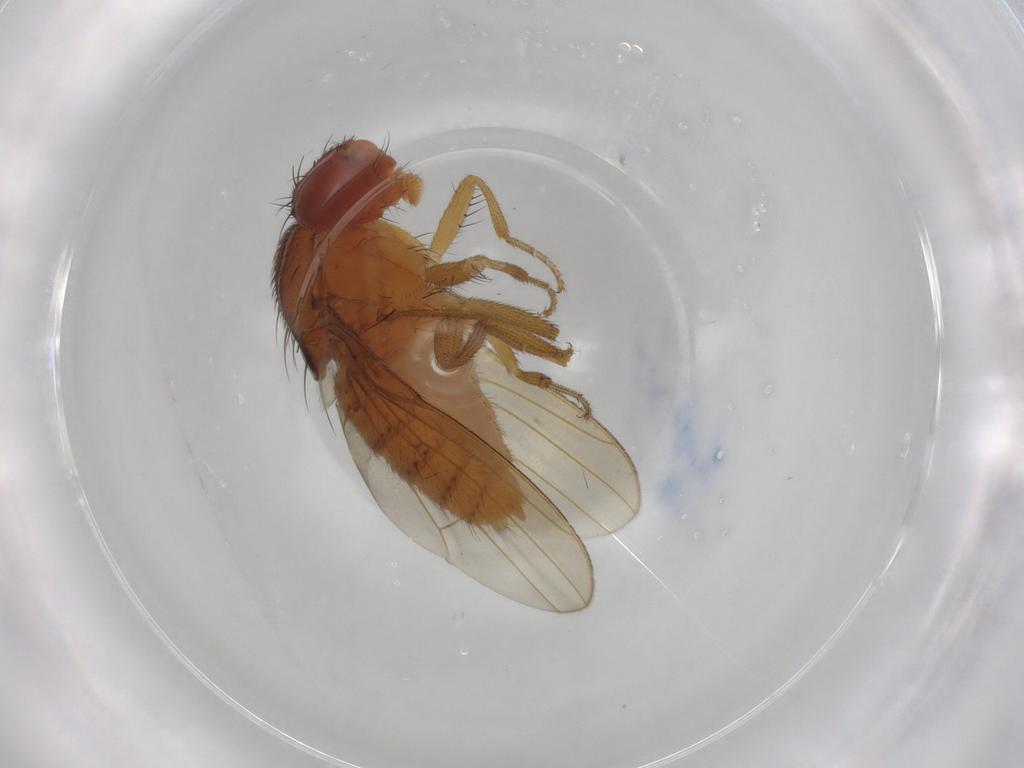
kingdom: Animalia
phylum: Arthropoda
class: Insecta
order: Diptera
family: Drosophilidae
